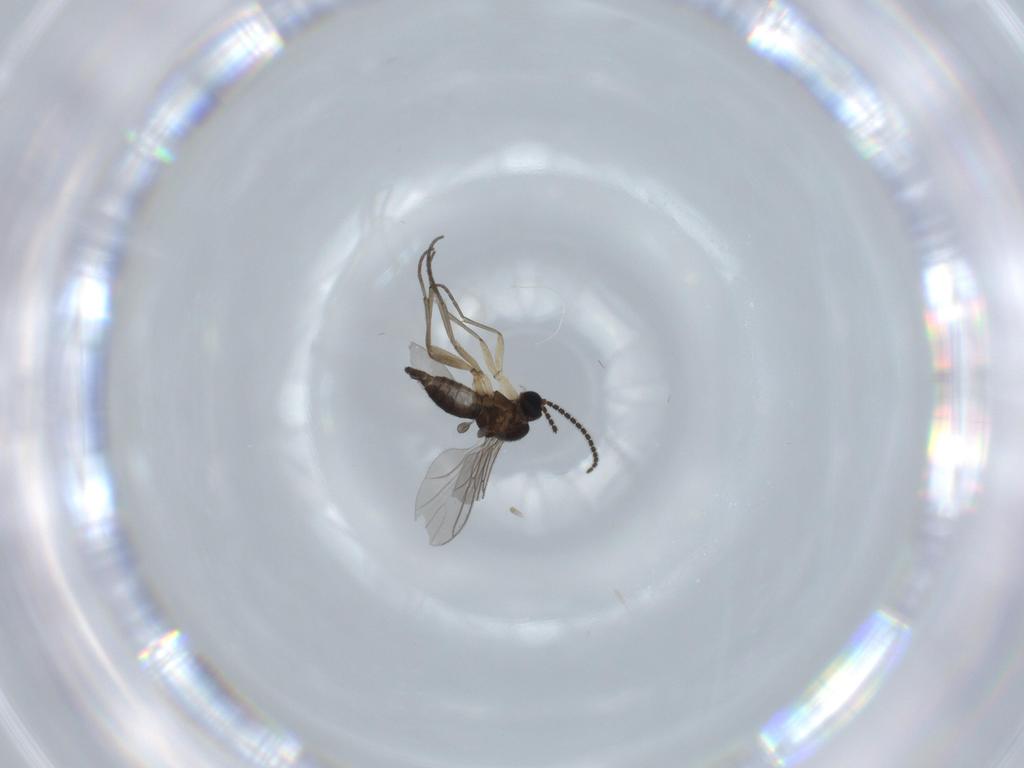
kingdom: Animalia
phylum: Arthropoda
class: Insecta
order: Diptera
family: Sciaridae
